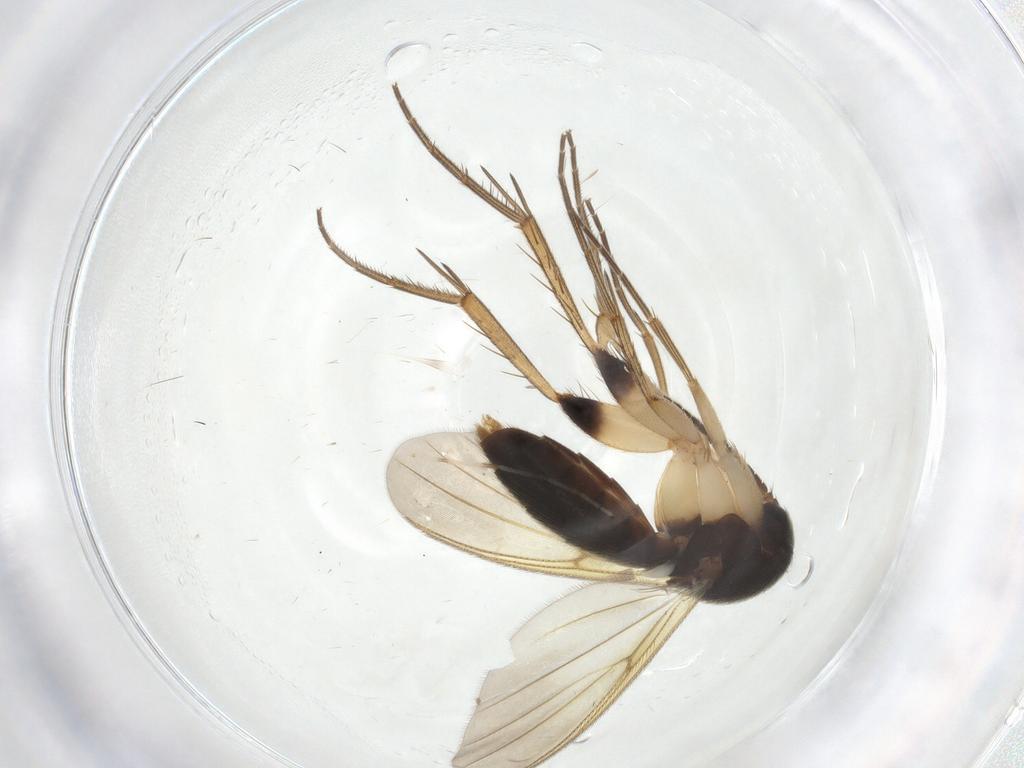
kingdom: Animalia
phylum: Arthropoda
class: Insecta
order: Diptera
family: Mycetophilidae
